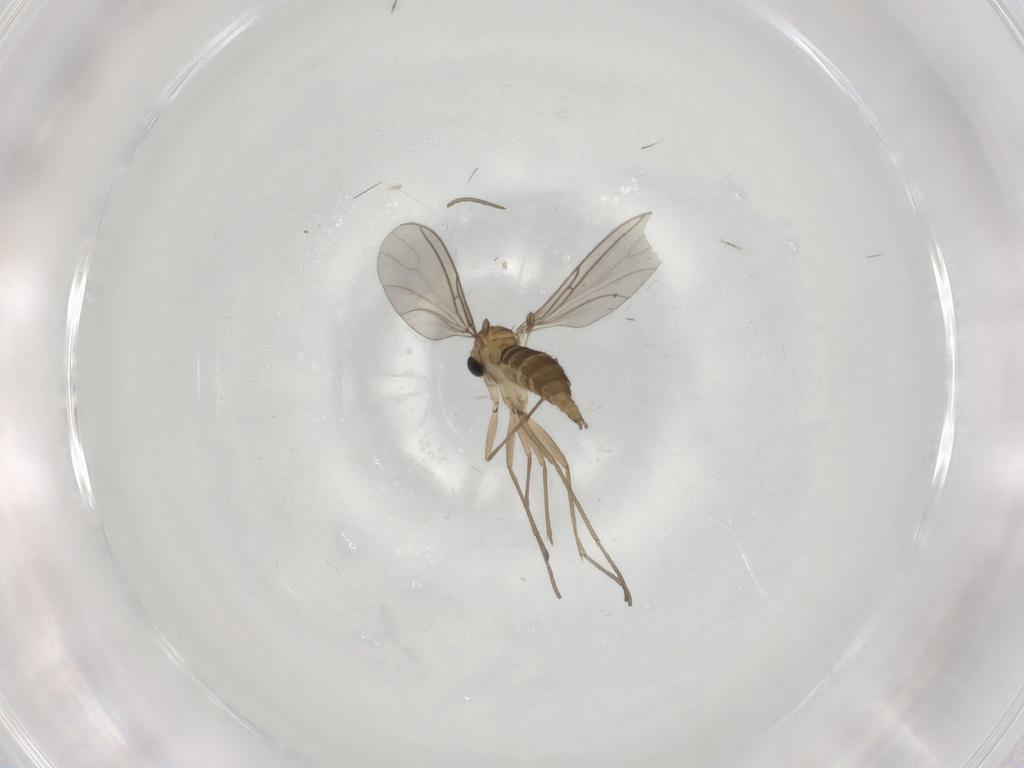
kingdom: Animalia
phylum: Arthropoda
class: Insecta
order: Diptera
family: Sciaridae
